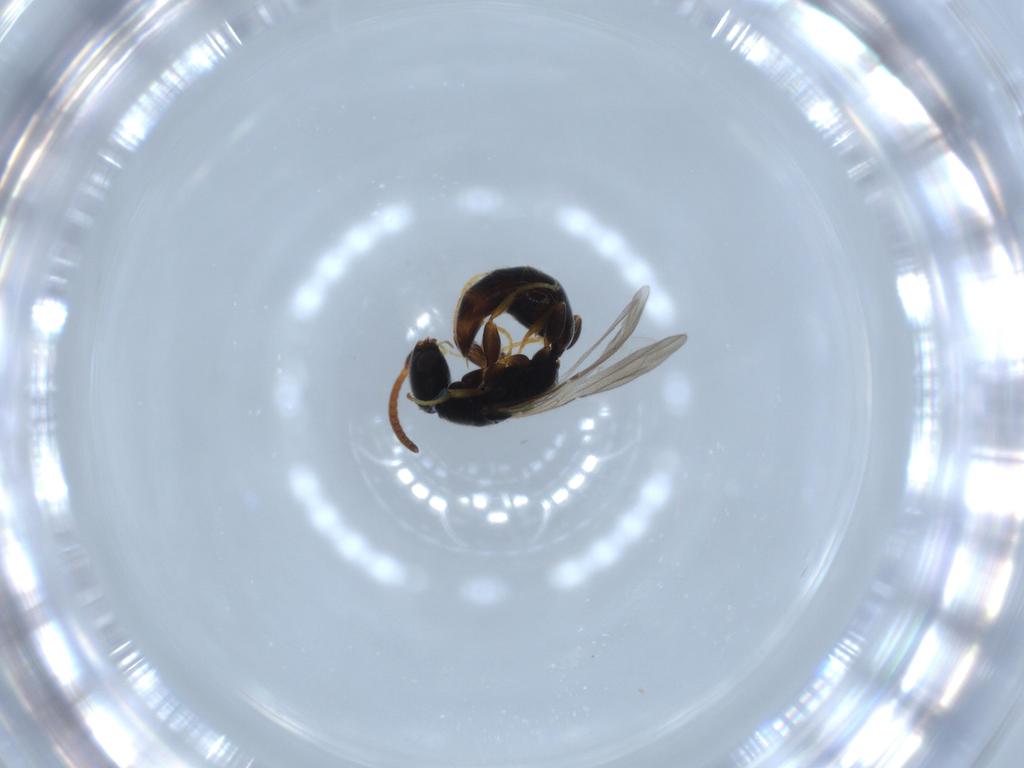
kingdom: Animalia
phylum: Arthropoda
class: Insecta
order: Hymenoptera
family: Bethylidae
